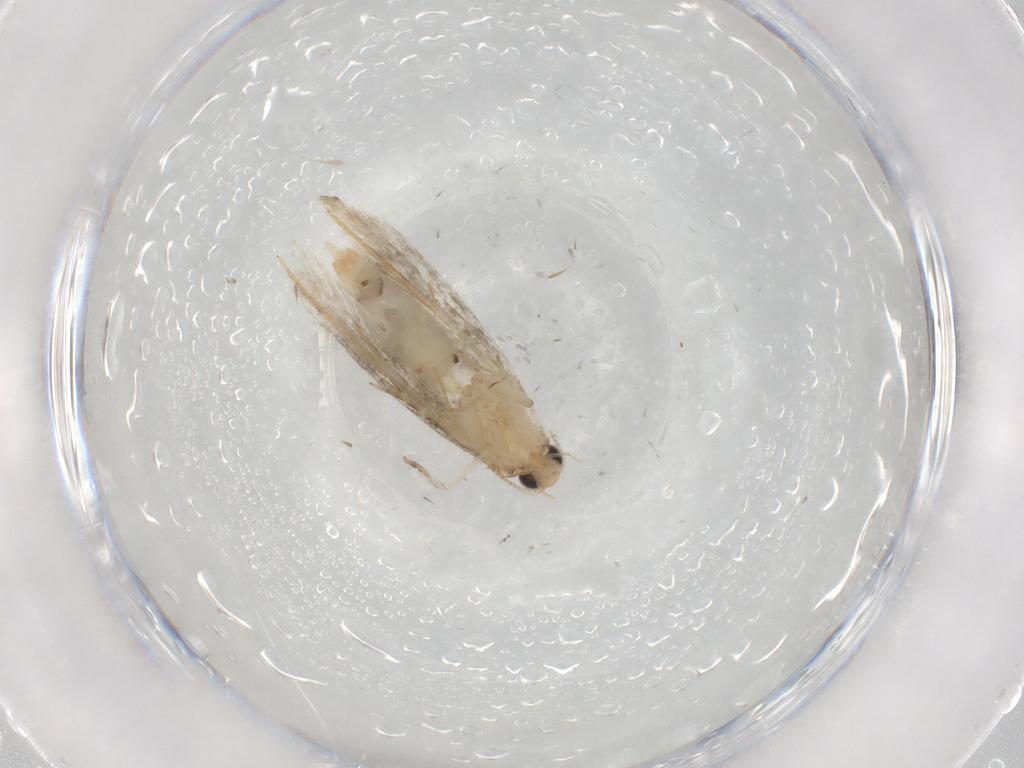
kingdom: Animalia
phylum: Arthropoda
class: Insecta
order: Lepidoptera
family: Tineidae
